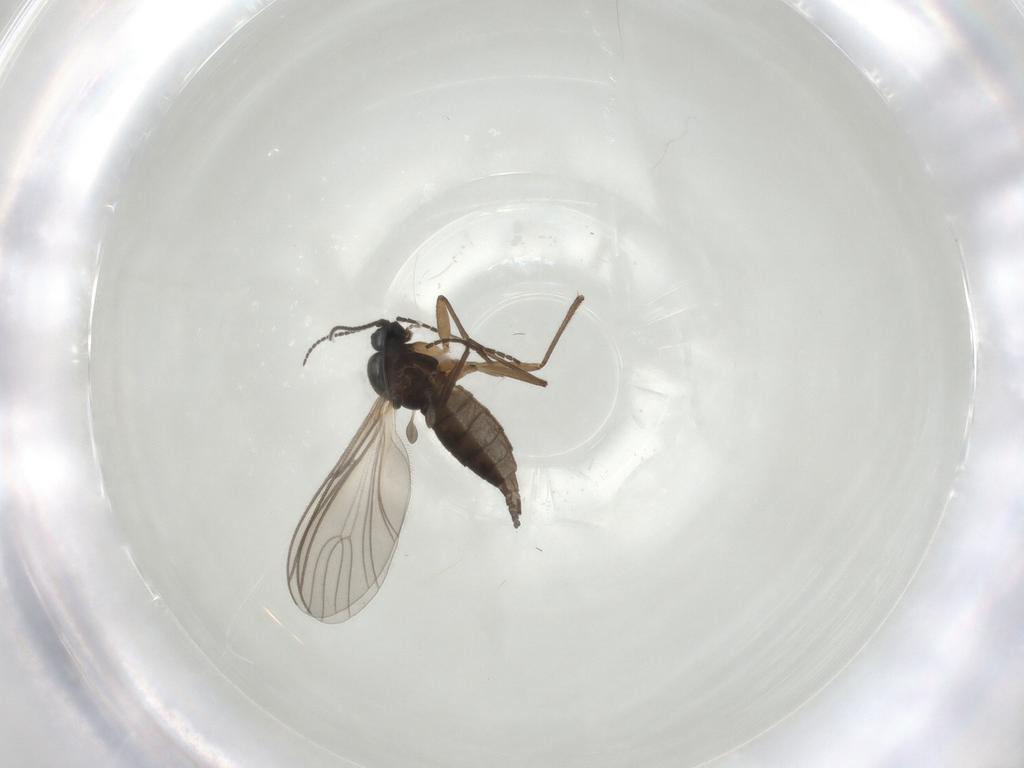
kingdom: Animalia
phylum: Arthropoda
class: Insecta
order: Diptera
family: Sciaridae
